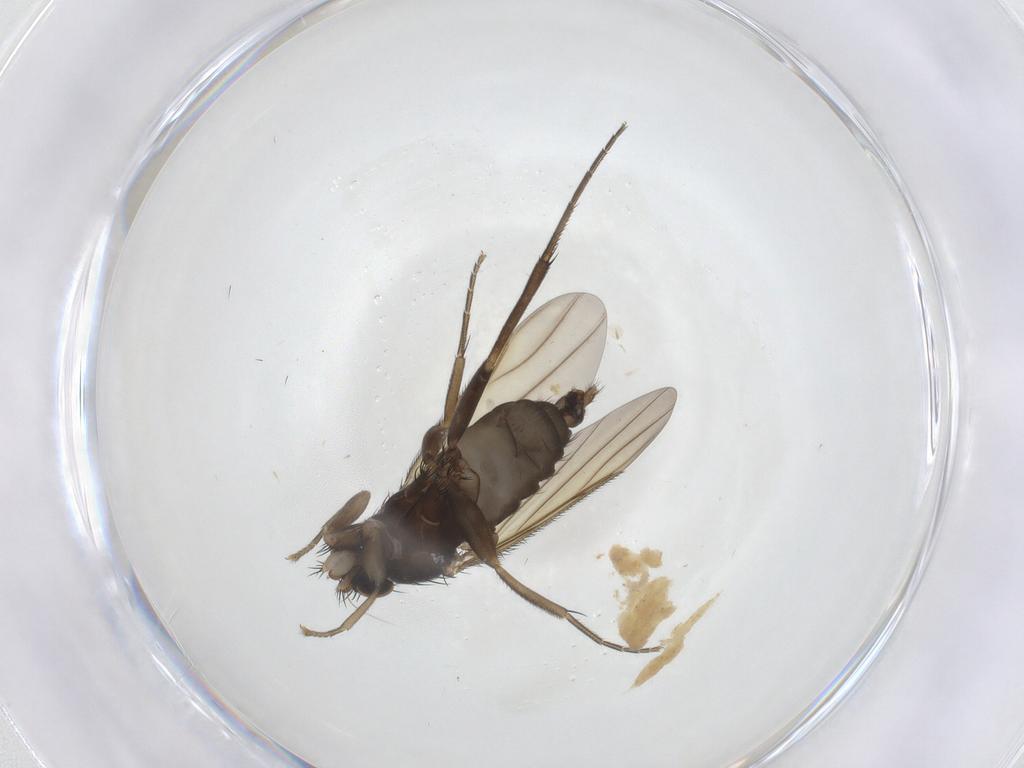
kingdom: Animalia
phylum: Arthropoda
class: Insecta
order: Diptera
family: Phoridae
